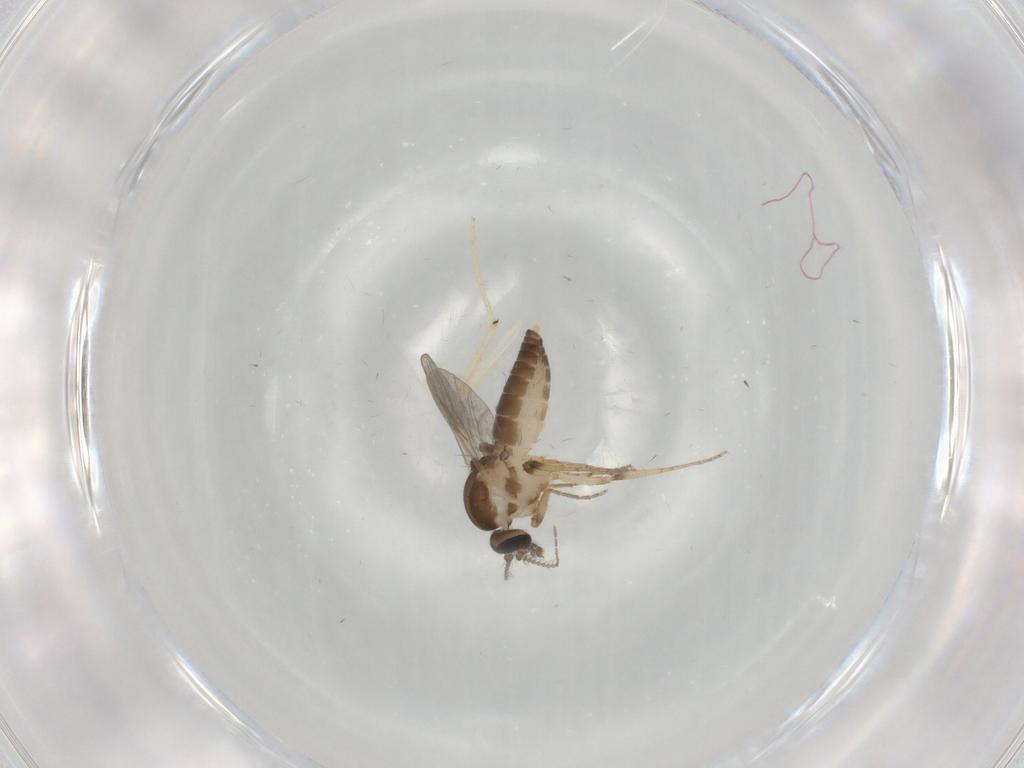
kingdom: Animalia
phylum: Arthropoda
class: Insecta
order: Diptera
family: Ceratopogonidae
